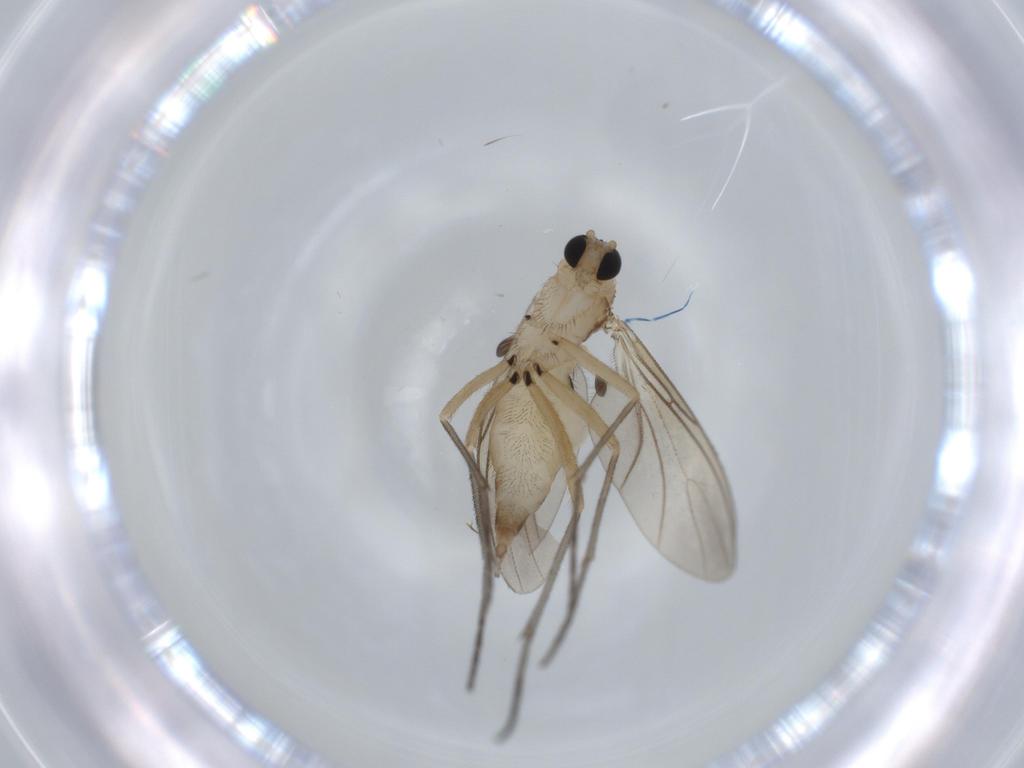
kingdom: Animalia
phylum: Arthropoda
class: Insecta
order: Diptera
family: Sciaridae
